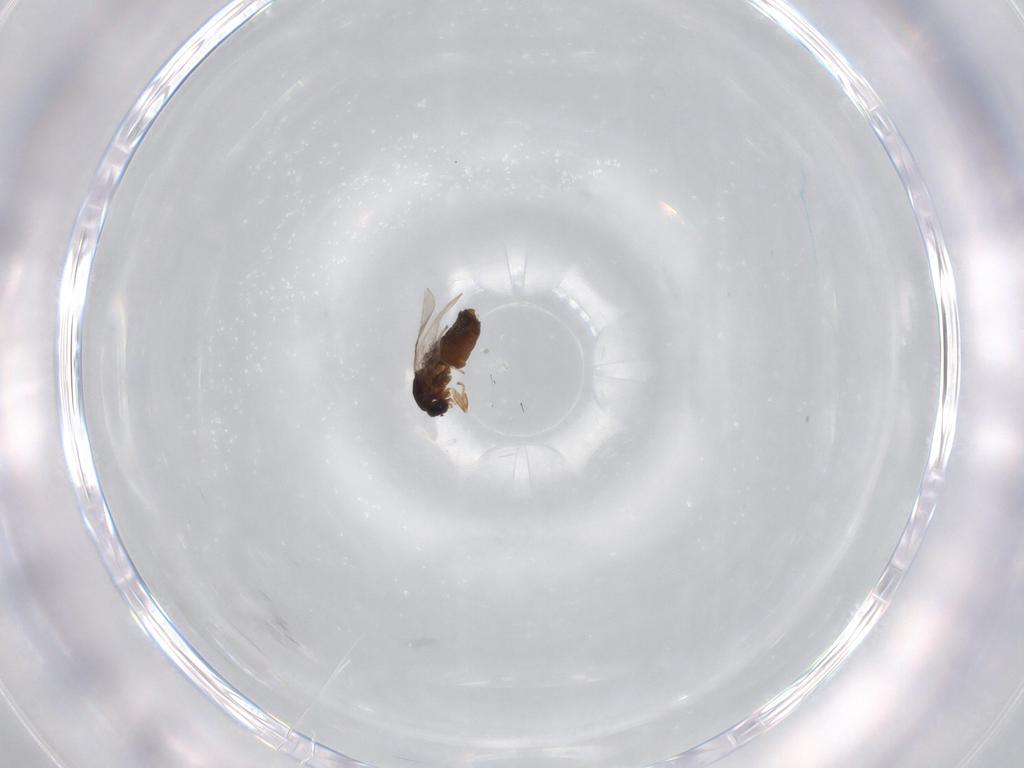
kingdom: Animalia
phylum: Arthropoda
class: Insecta
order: Diptera
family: Chloropidae
